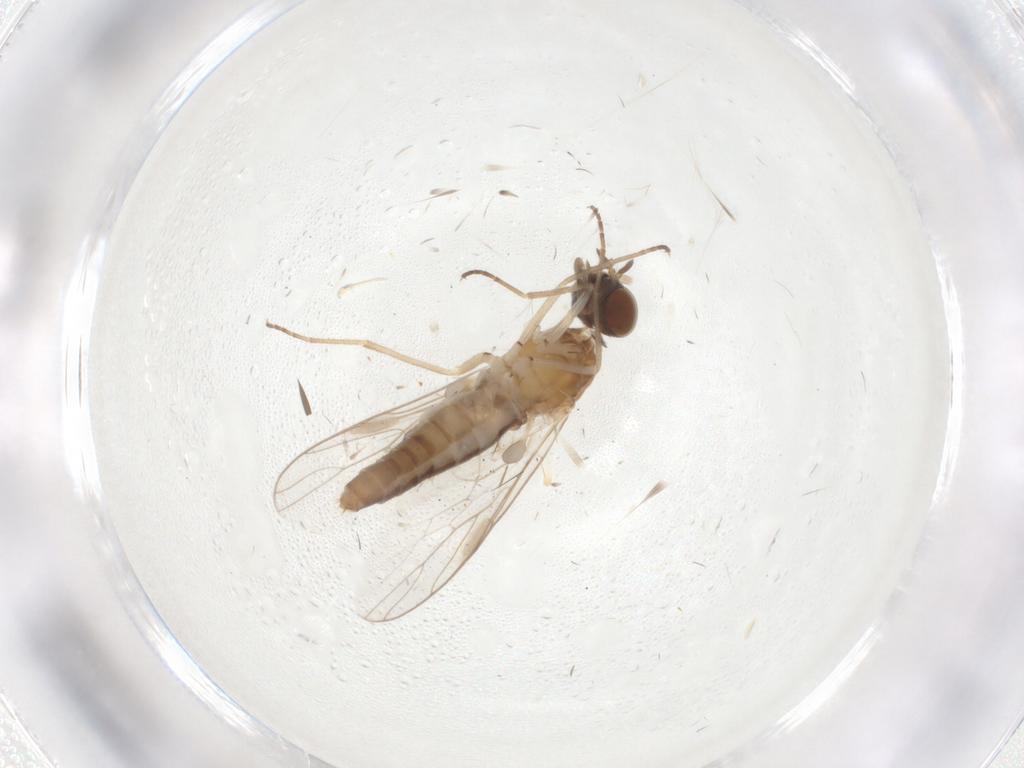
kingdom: Animalia
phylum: Arthropoda
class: Insecta
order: Diptera
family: Scenopinidae
